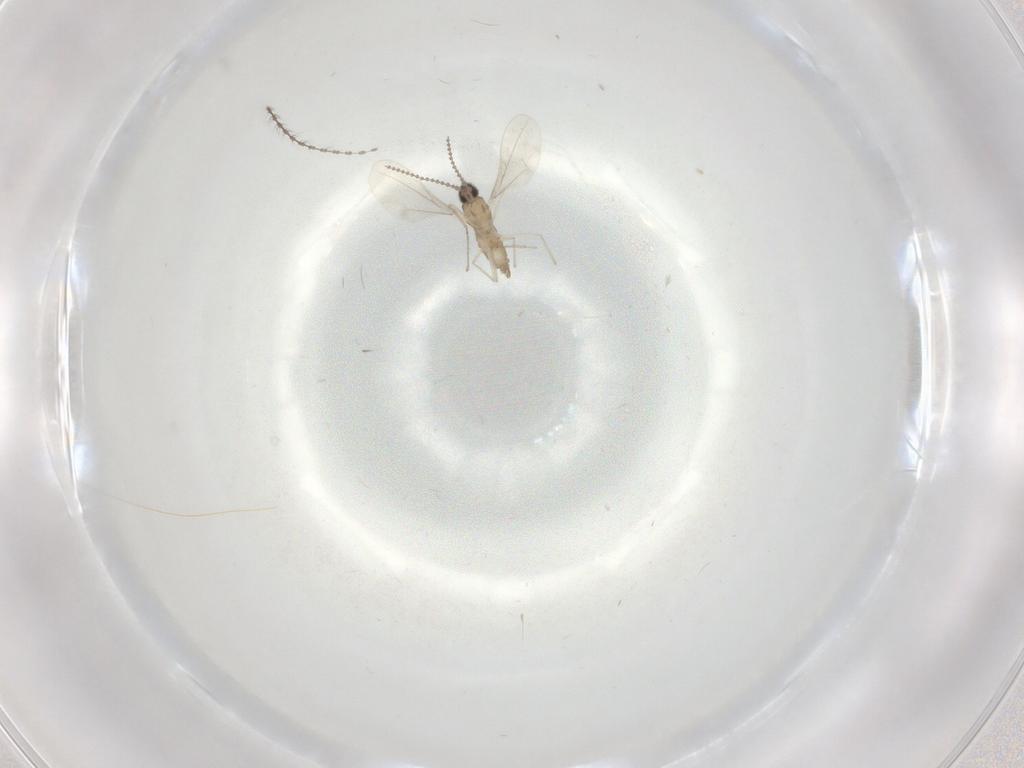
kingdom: Animalia
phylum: Arthropoda
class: Insecta
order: Diptera
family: Cecidomyiidae
